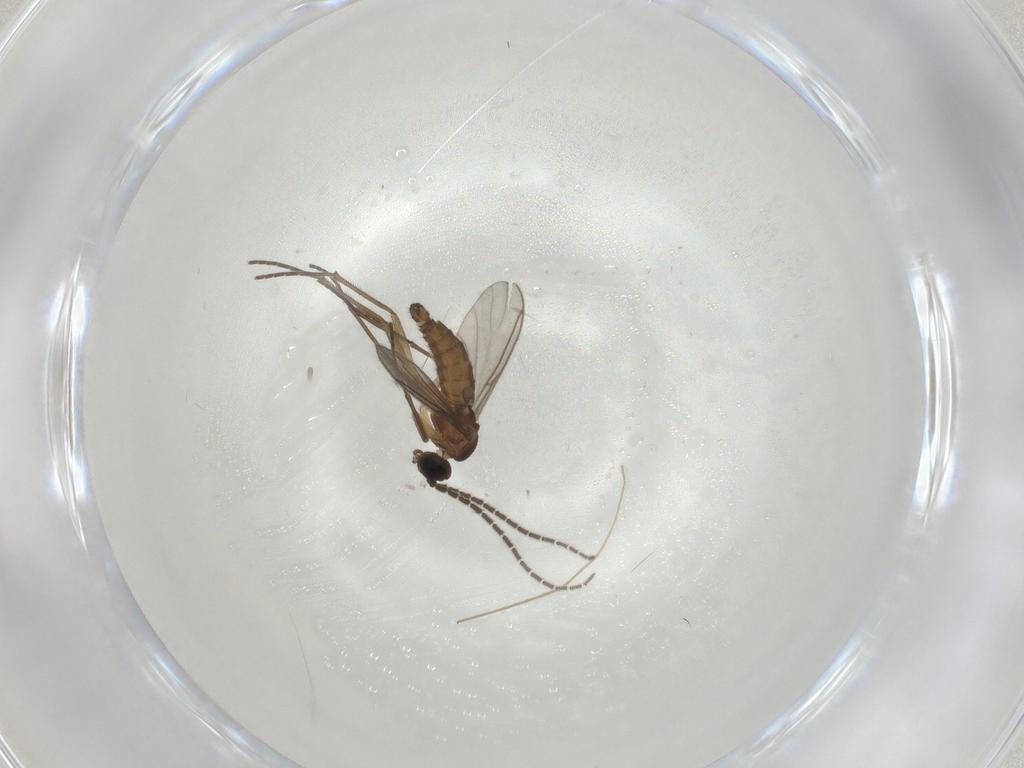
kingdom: Animalia
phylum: Arthropoda
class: Insecta
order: Diptera
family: Sciaridae
